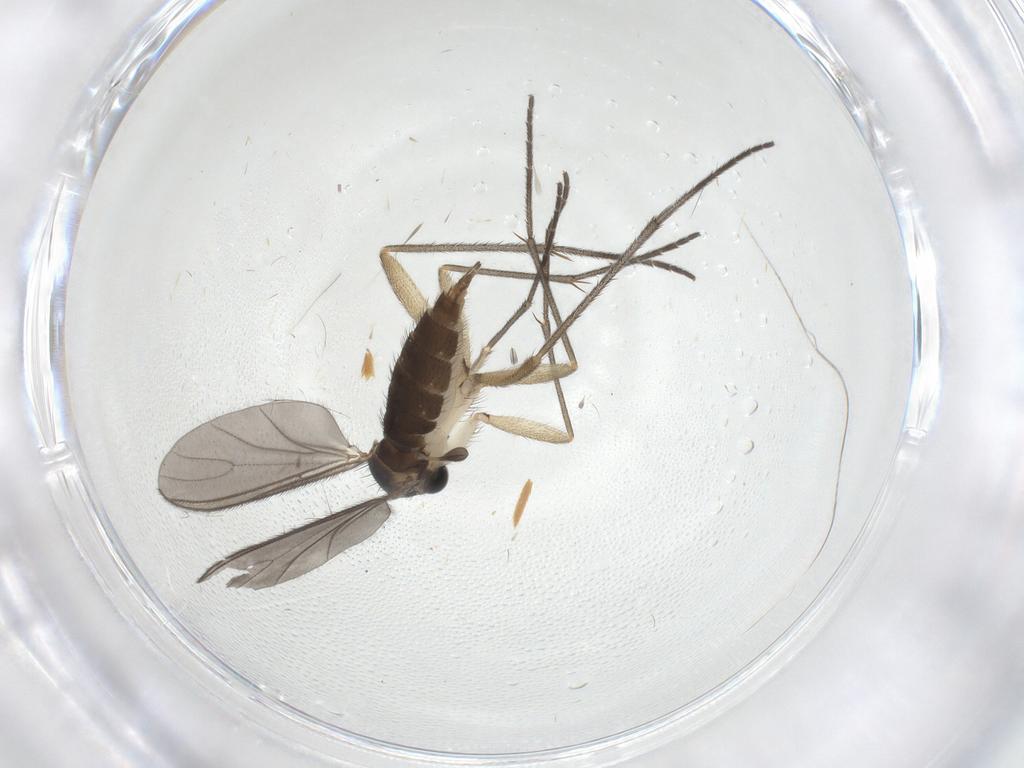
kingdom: Animalia
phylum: Arthropoda
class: Insecta
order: Diptera
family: Sciaridae
